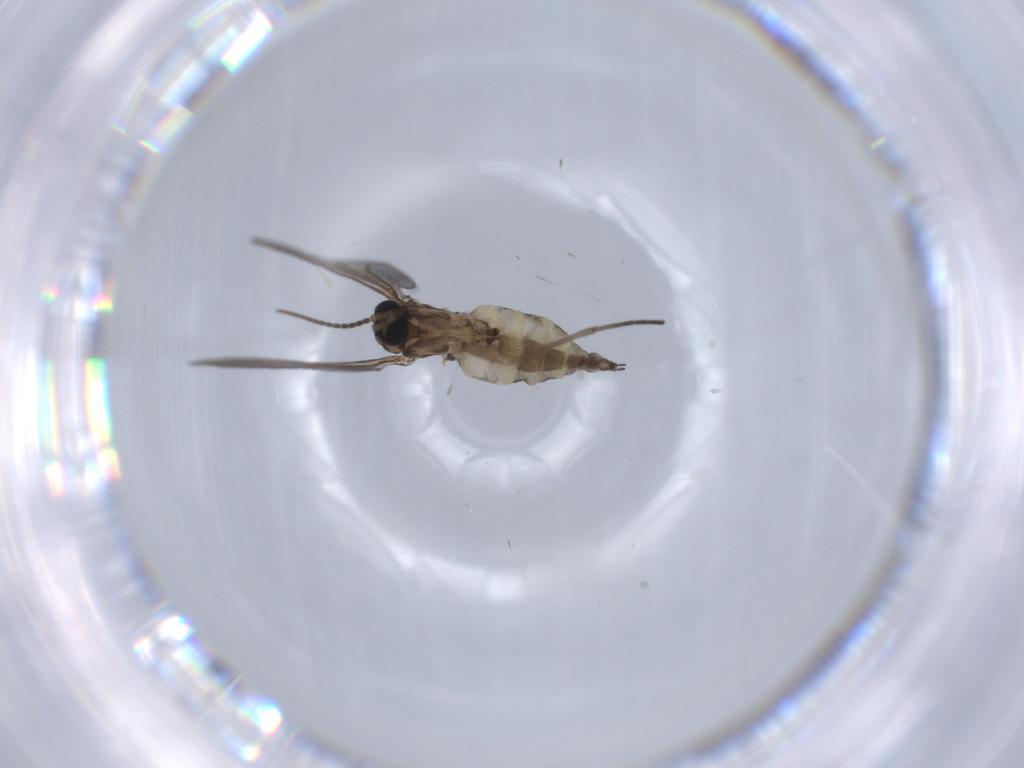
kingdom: Animalia
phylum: Arthropoda
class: Insecta
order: Diptera
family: Sciaridae
